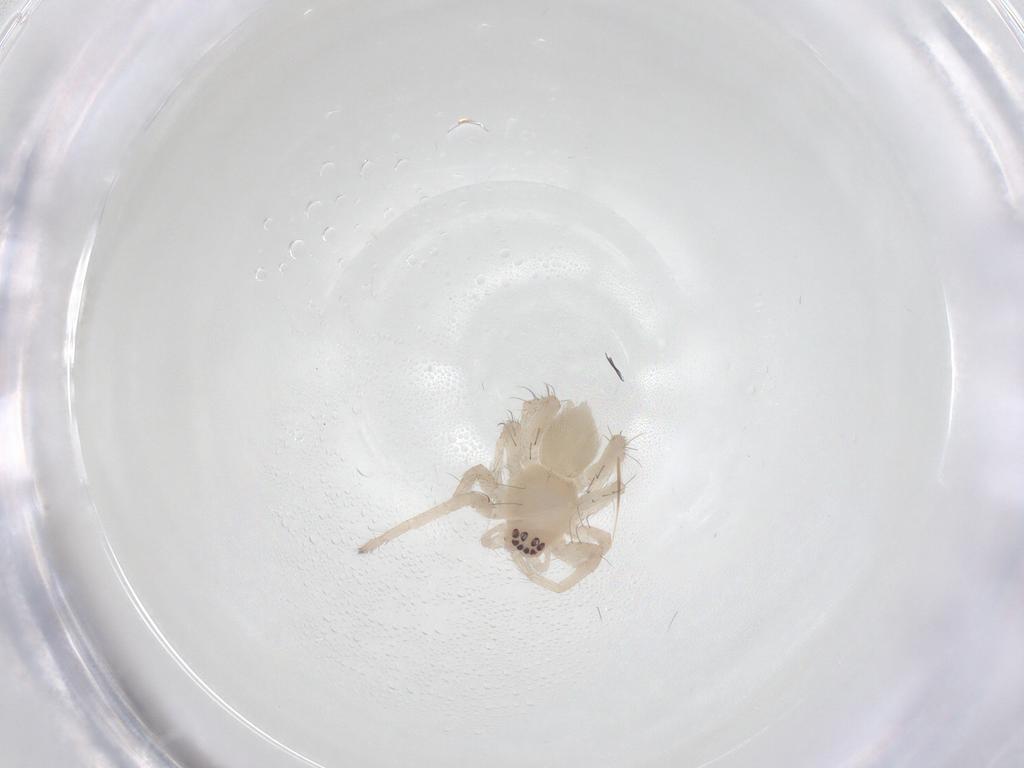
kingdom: Animalia
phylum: Arthropoda
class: Arachnida
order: Araneae
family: Anyphaenidae
